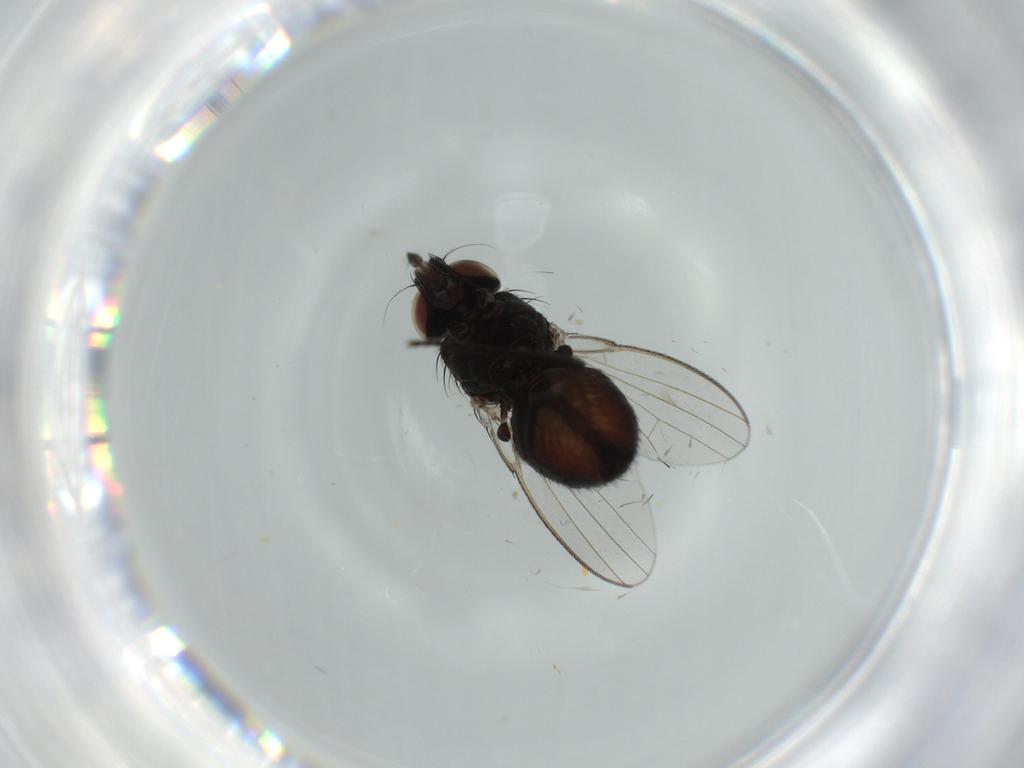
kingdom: Animalia
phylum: Arthropoda
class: Insecta
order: Diptera
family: Milichiidae
